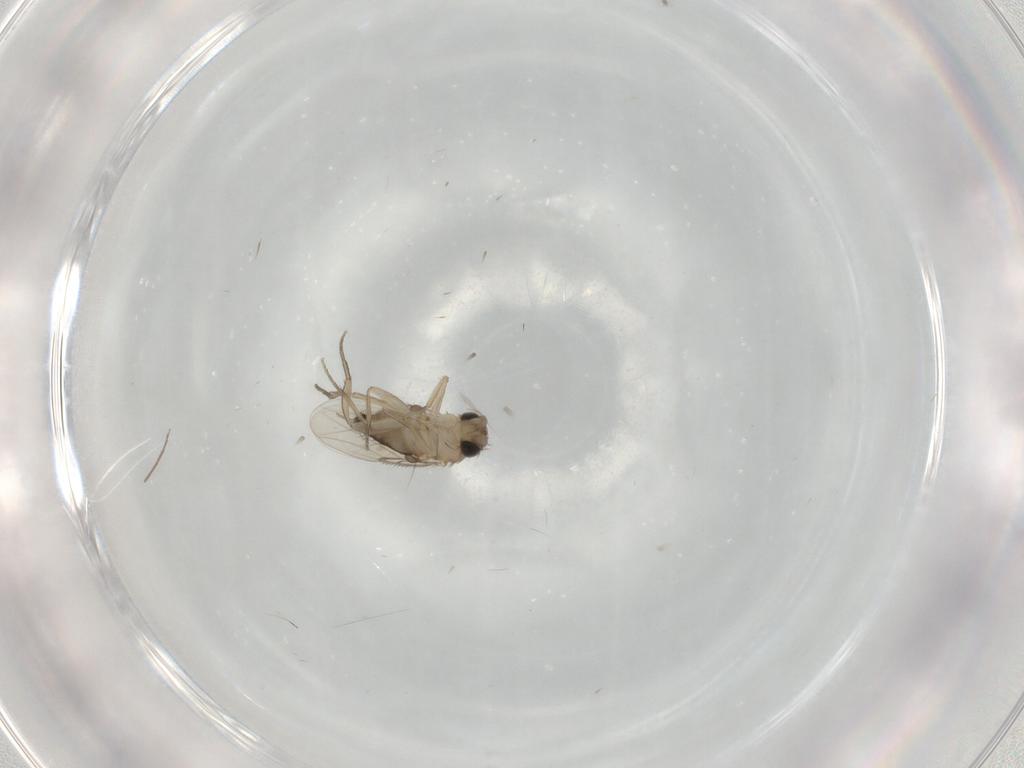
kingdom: Animalia
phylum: Arthropoda
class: Insecta
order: Diptera
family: Phoridae
